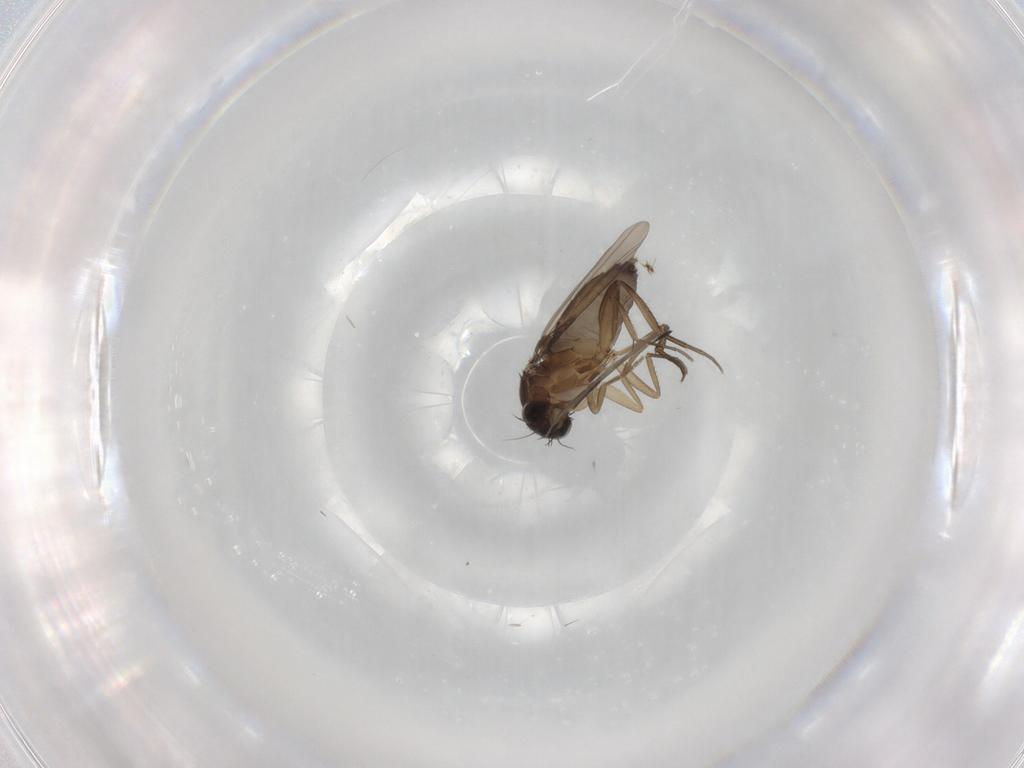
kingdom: Animalia
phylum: Arthropoda
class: Insecta
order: Diptera
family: Phoridae
